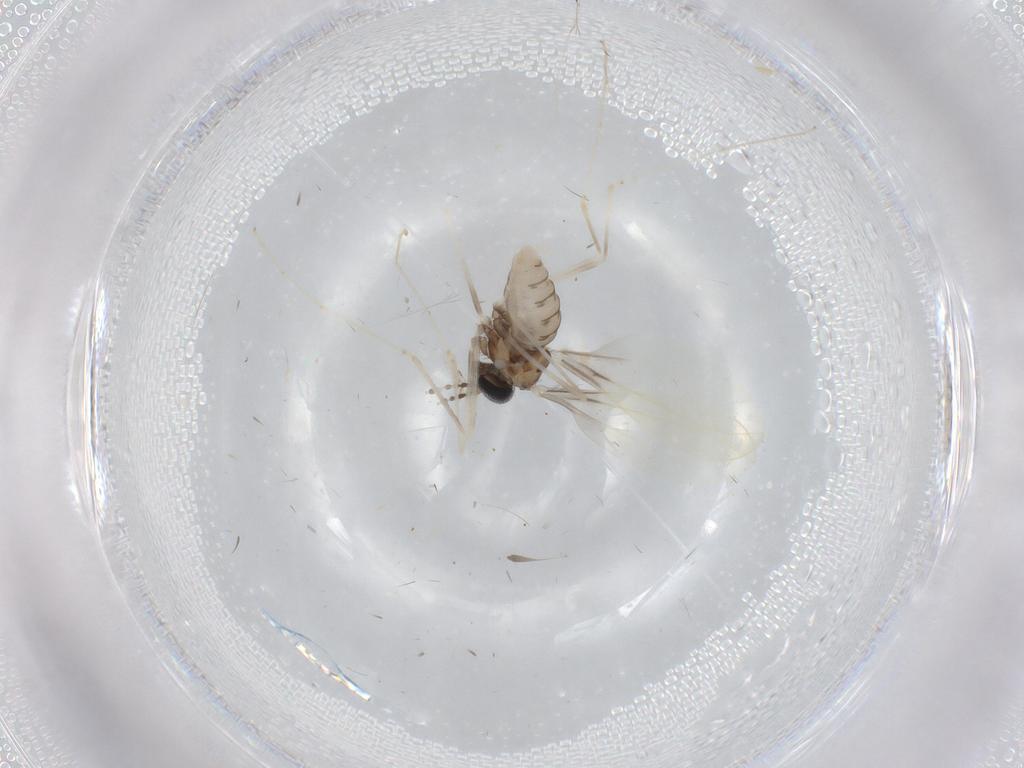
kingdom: Animalia
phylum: Arthropoda
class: Insecta
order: Diptera
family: Cecidomyiidae
